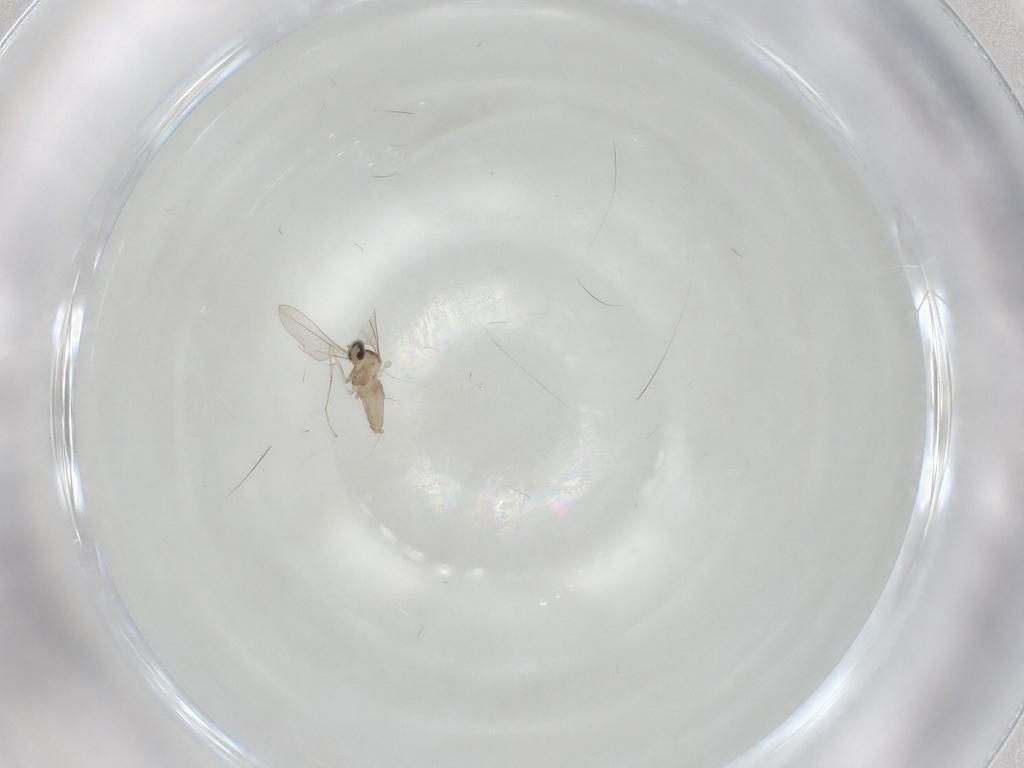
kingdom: Animalia
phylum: Arthropoda
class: Insecta
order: Diptera
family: Cecidomyiidae
